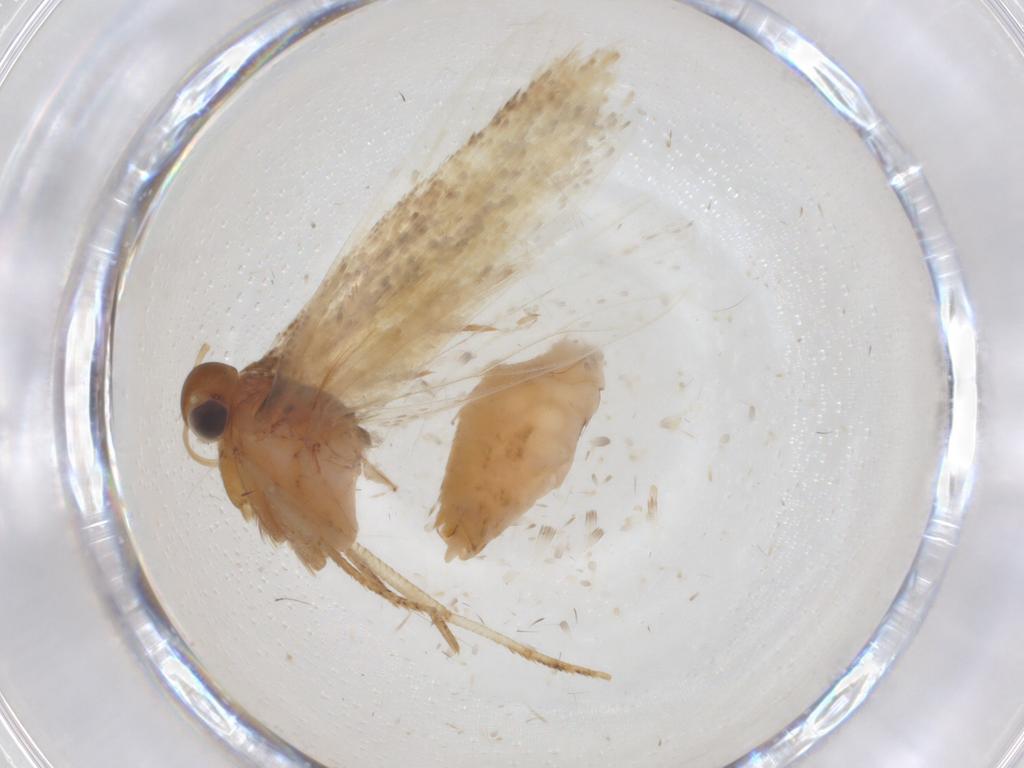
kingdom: Animalia
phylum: Arthropoda
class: Insecta
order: Lepidoptera
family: Gelechiidae
